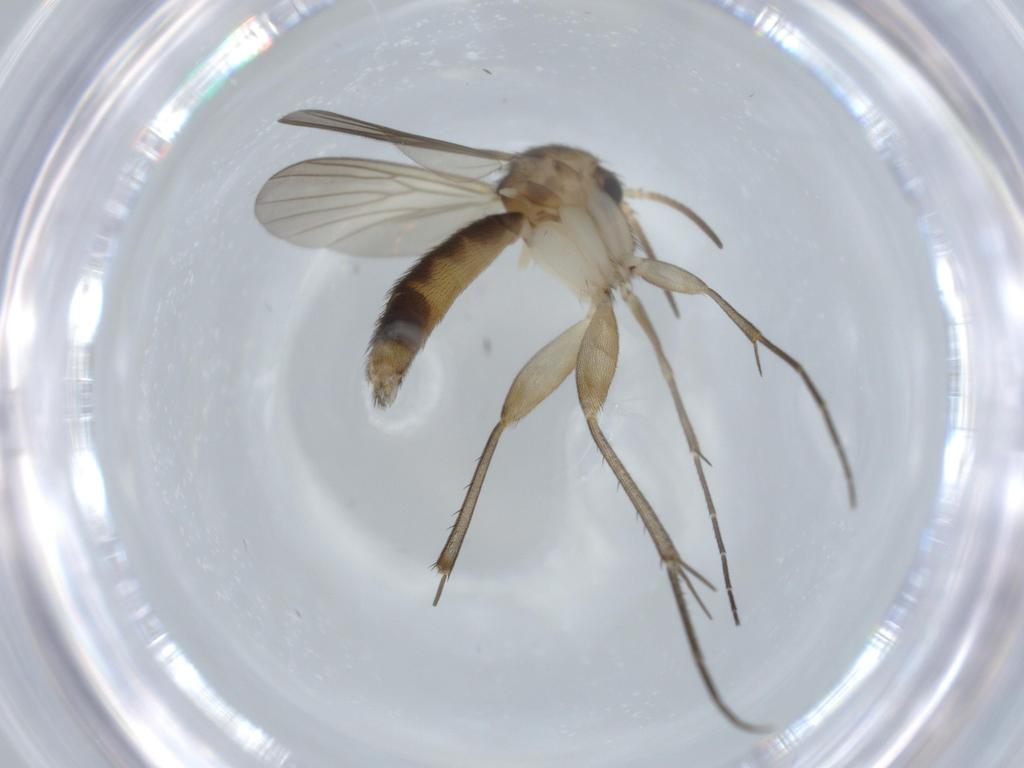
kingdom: Animalia
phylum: Arthropoda
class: Insecta
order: Diptera
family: Mycetophilidae
